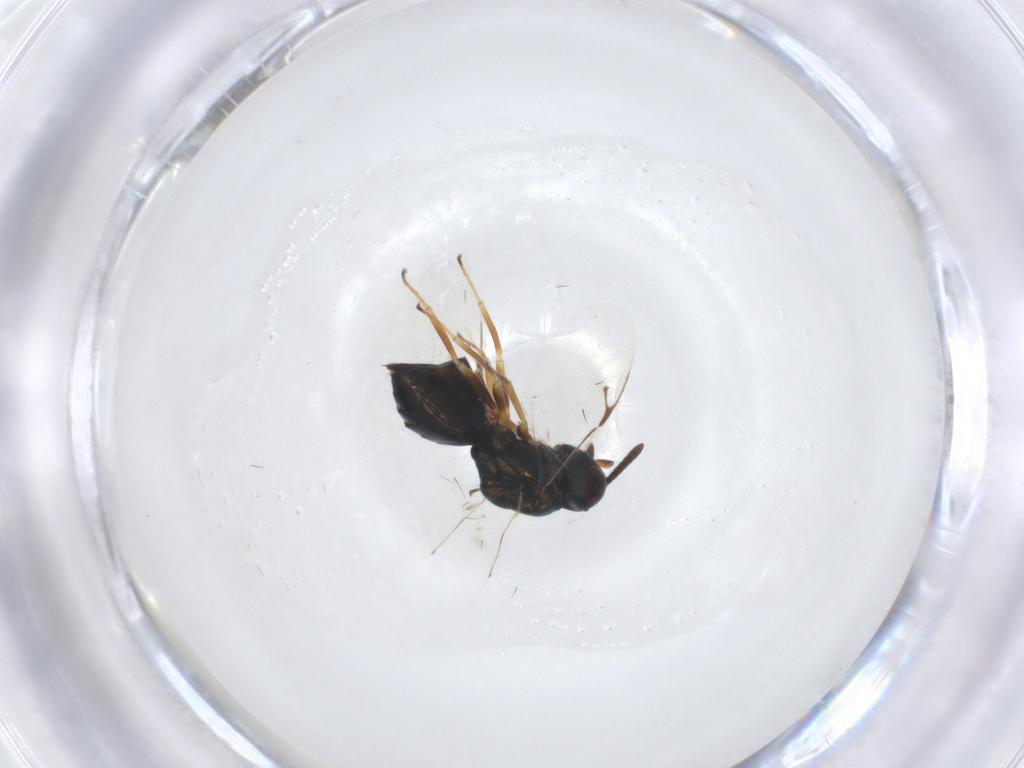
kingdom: Animalia
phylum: Arthropoda
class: Insecta
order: Hymenoptera
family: Pteromalidae
